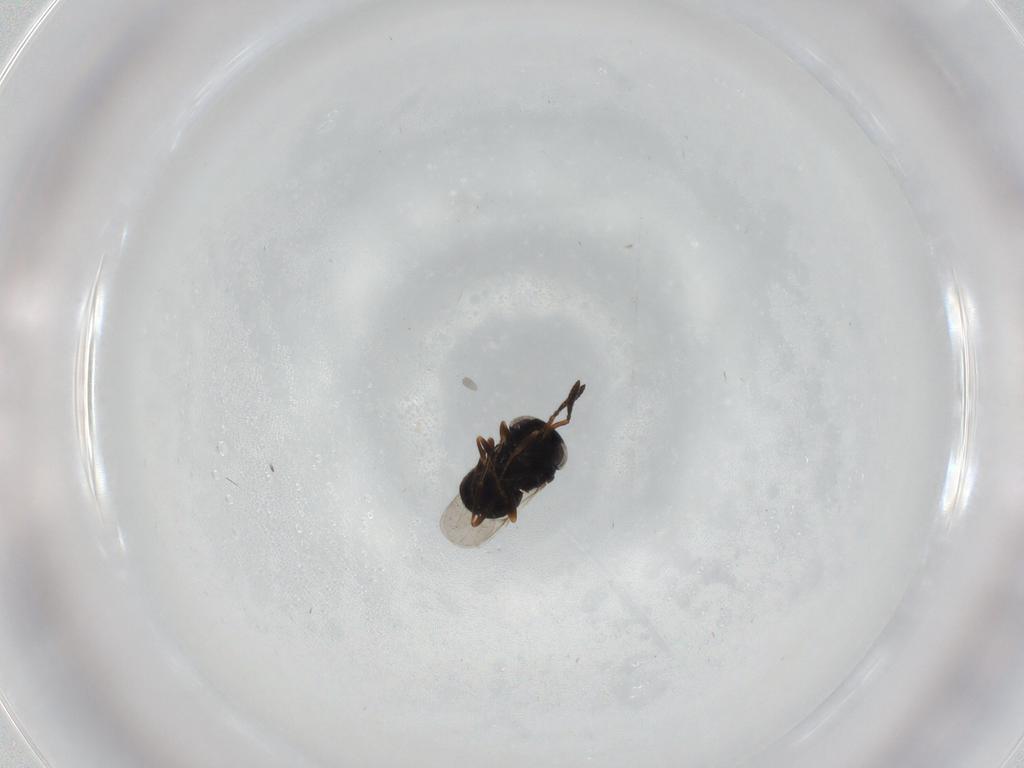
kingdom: Animalia
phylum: Arthropoda
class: Insecta
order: Hymenoptera
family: Scelionidae
